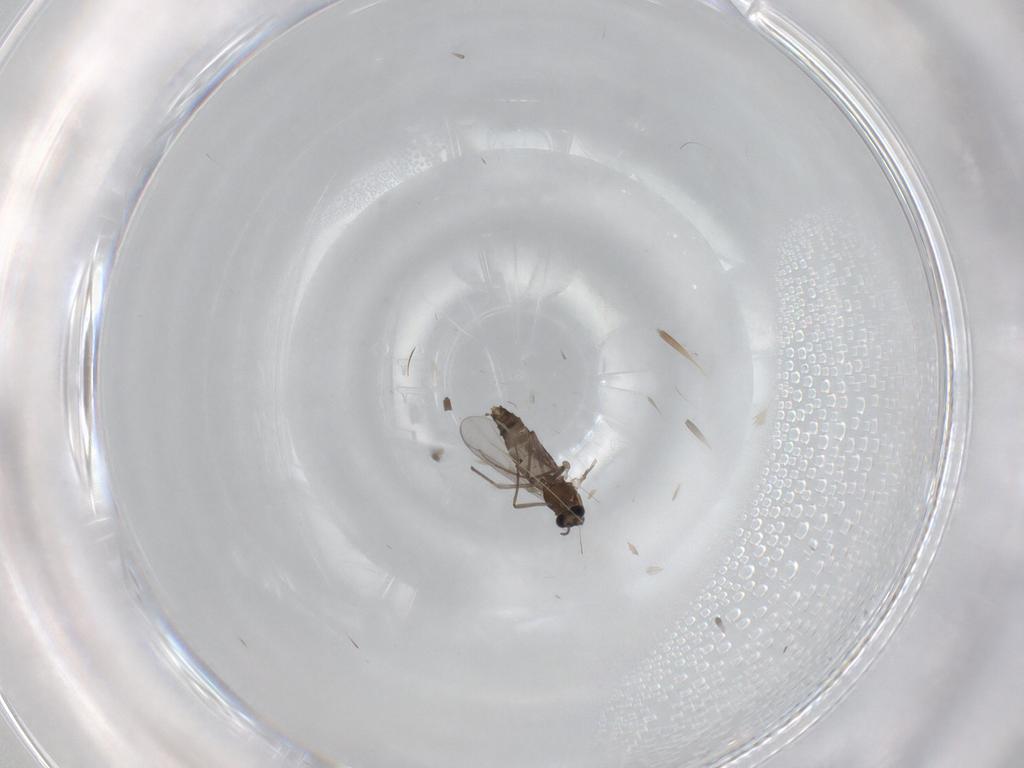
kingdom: Animalia
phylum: Arthropoda
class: Insecta
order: Diptera
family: Chironomidae
